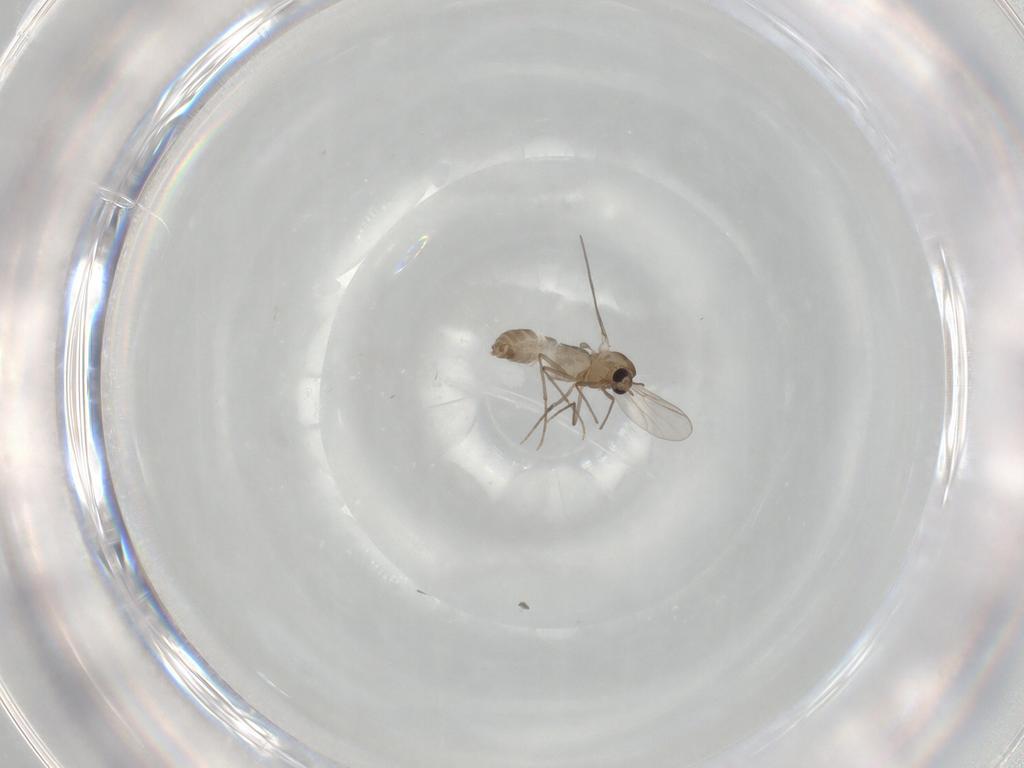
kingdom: Animalia
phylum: Arthropoda
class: Insecta
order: Diptera
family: Chironomidae
